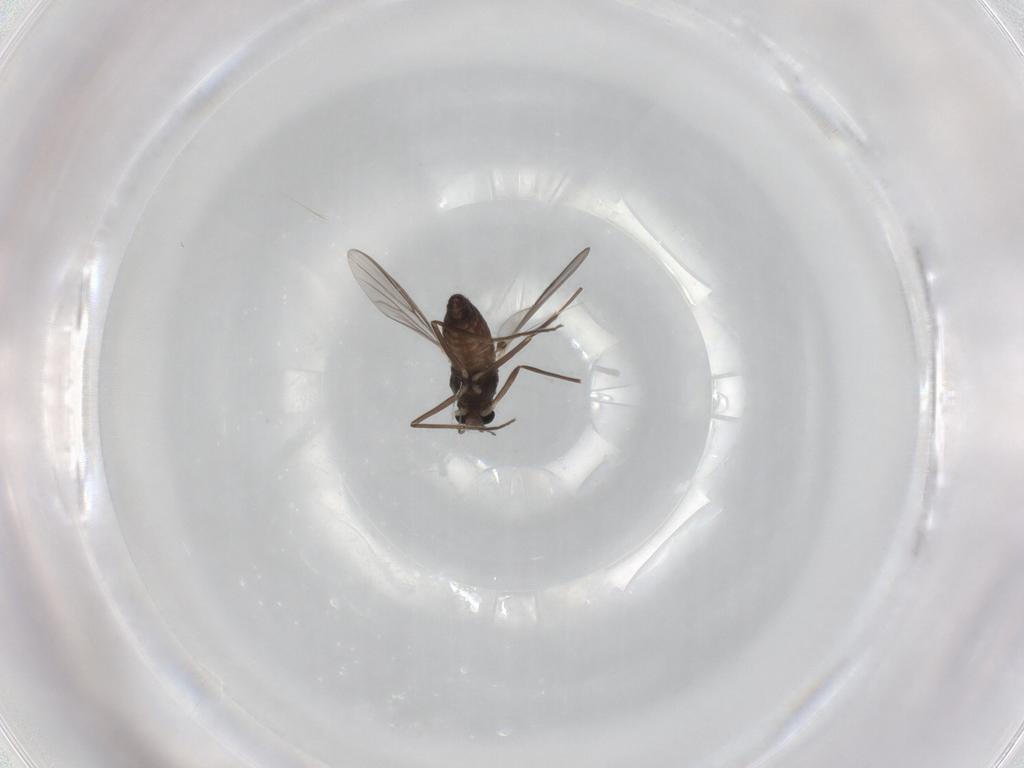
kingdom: Animalia
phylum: Arthropoda
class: Insecta
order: Diptera
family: Chironomidae
